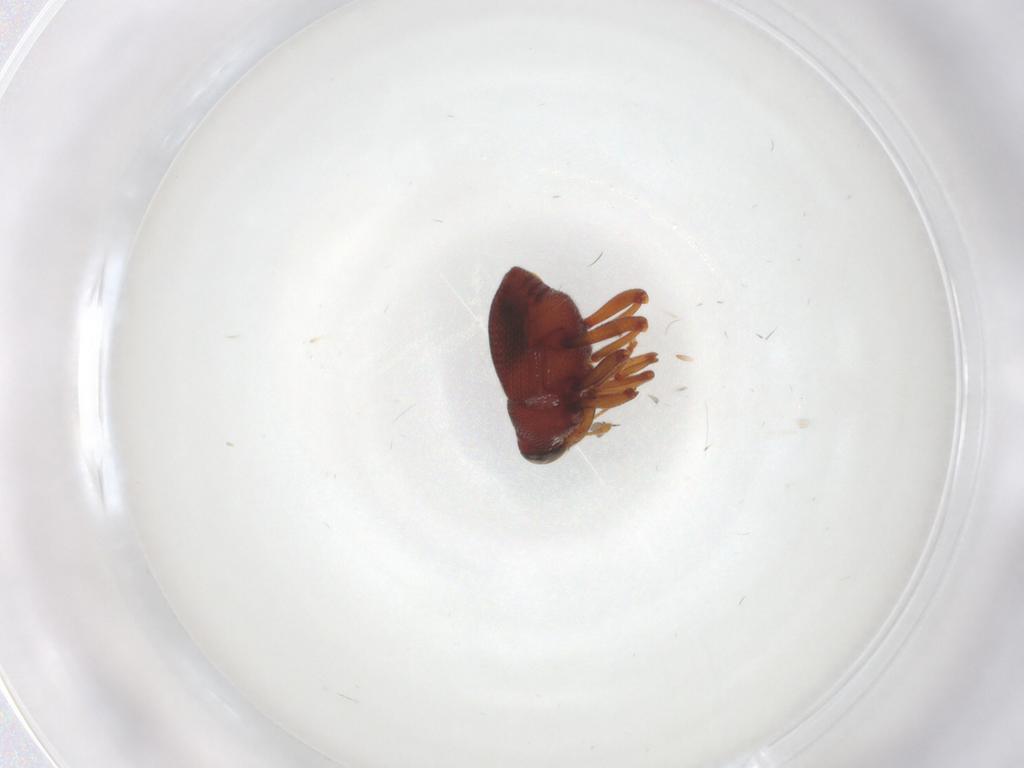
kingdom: Animalia
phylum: Arthropoda
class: Insecta
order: Coleoptera
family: Curculionidae
